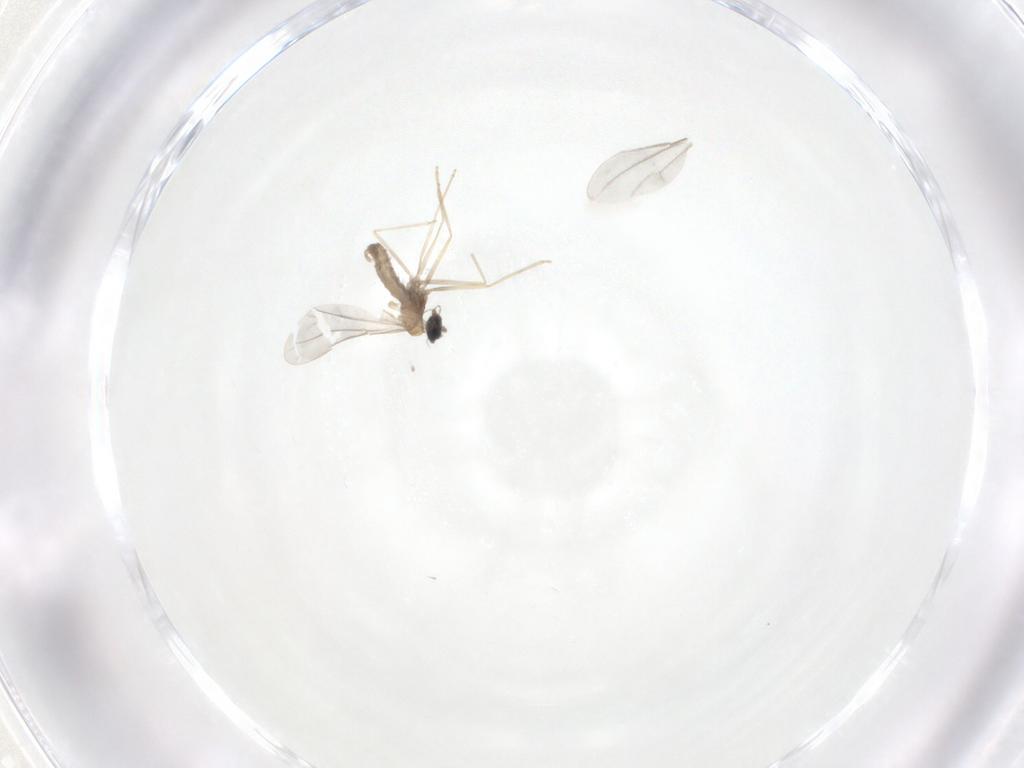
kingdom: Animalia
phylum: Arthropoda
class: Insecta
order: Diptera
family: Cecidomyiidae
